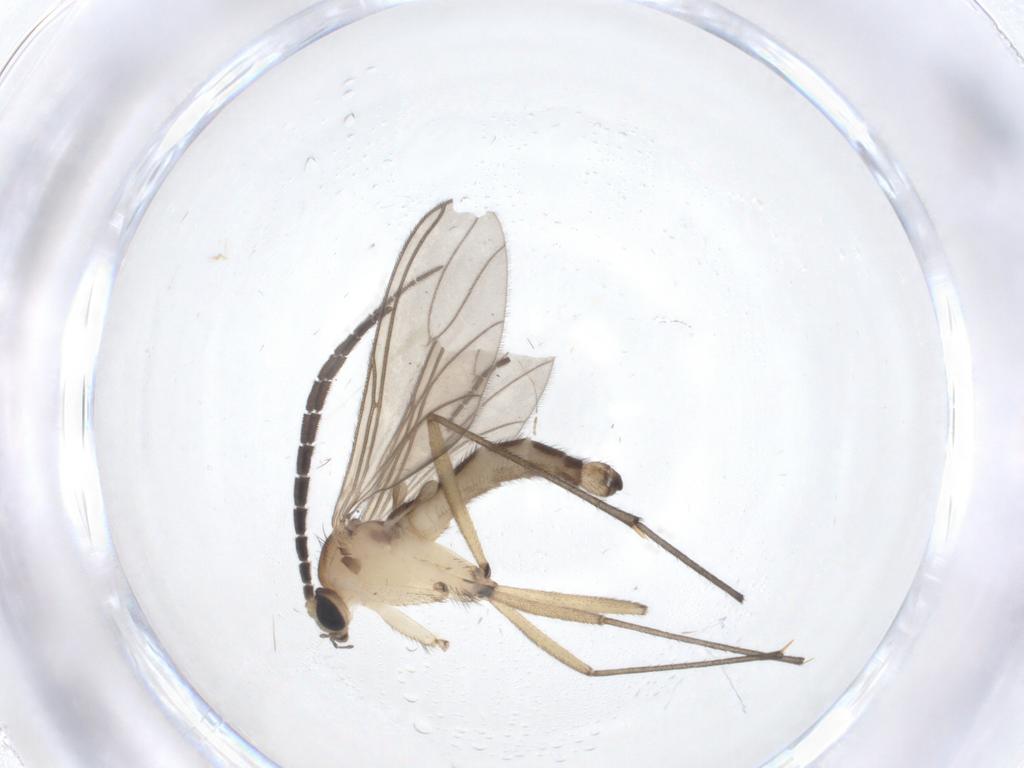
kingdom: Animalia
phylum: Arthropoda
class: Insecta
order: Diptera
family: Sciaridae
